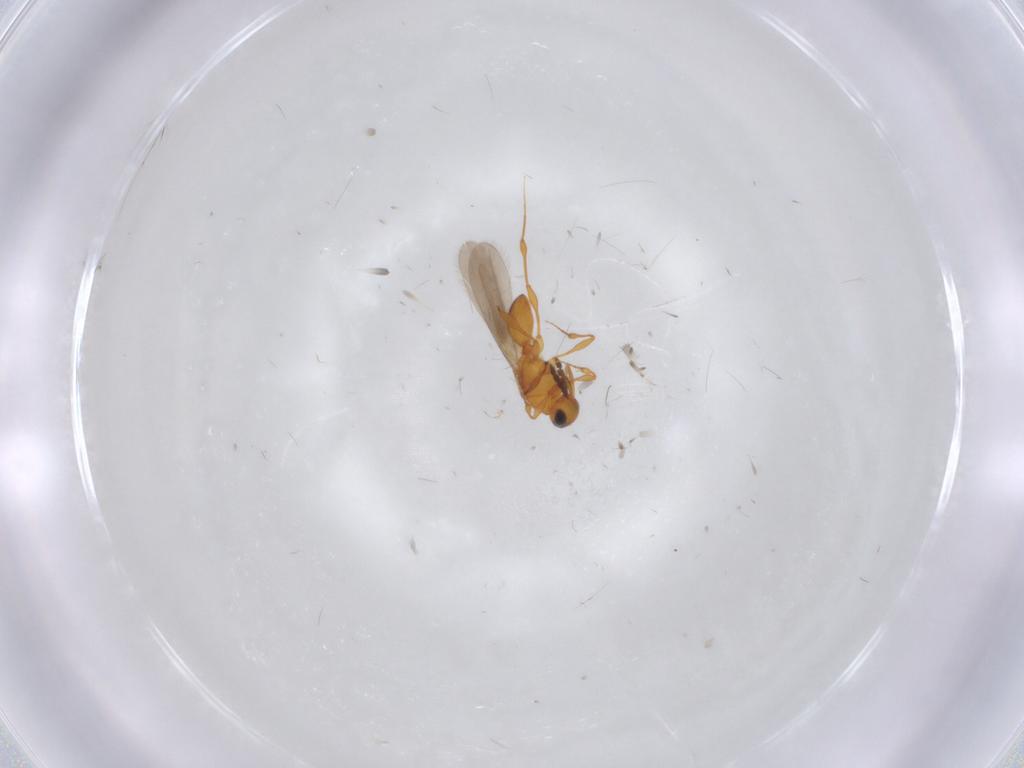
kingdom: Animalia
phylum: Arthropoda
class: Insecta
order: Hymenoptera
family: Platygastridae
